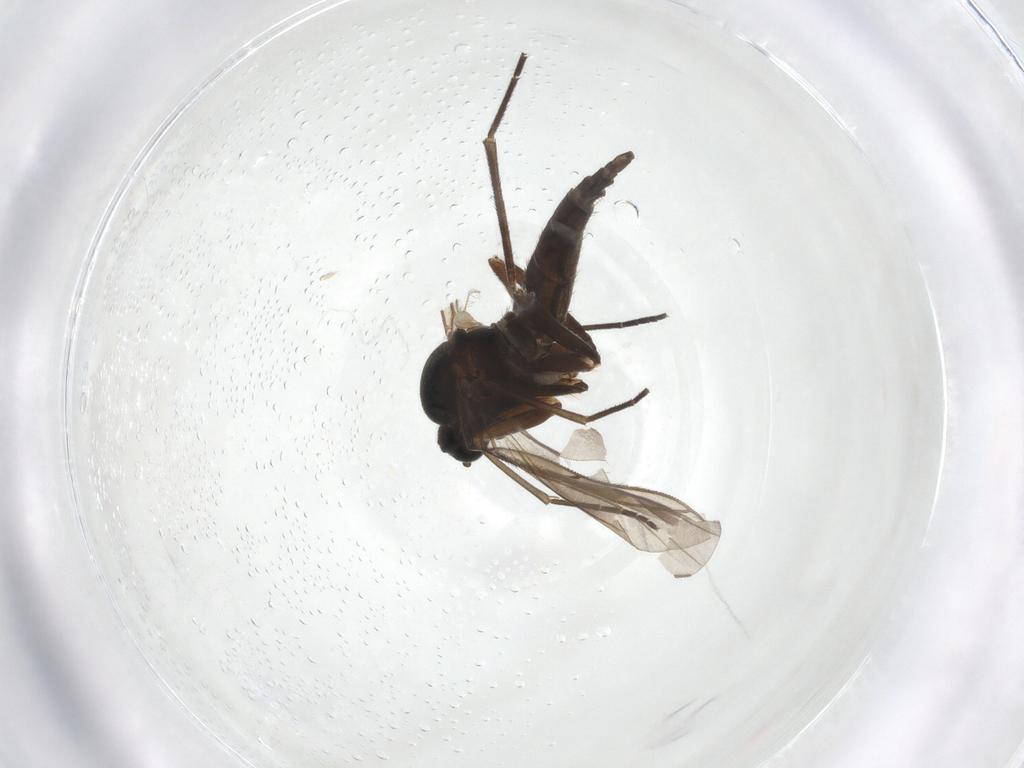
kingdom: Animalia
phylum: Arthropoda
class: Insecta
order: Diptera
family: Sciaridae
